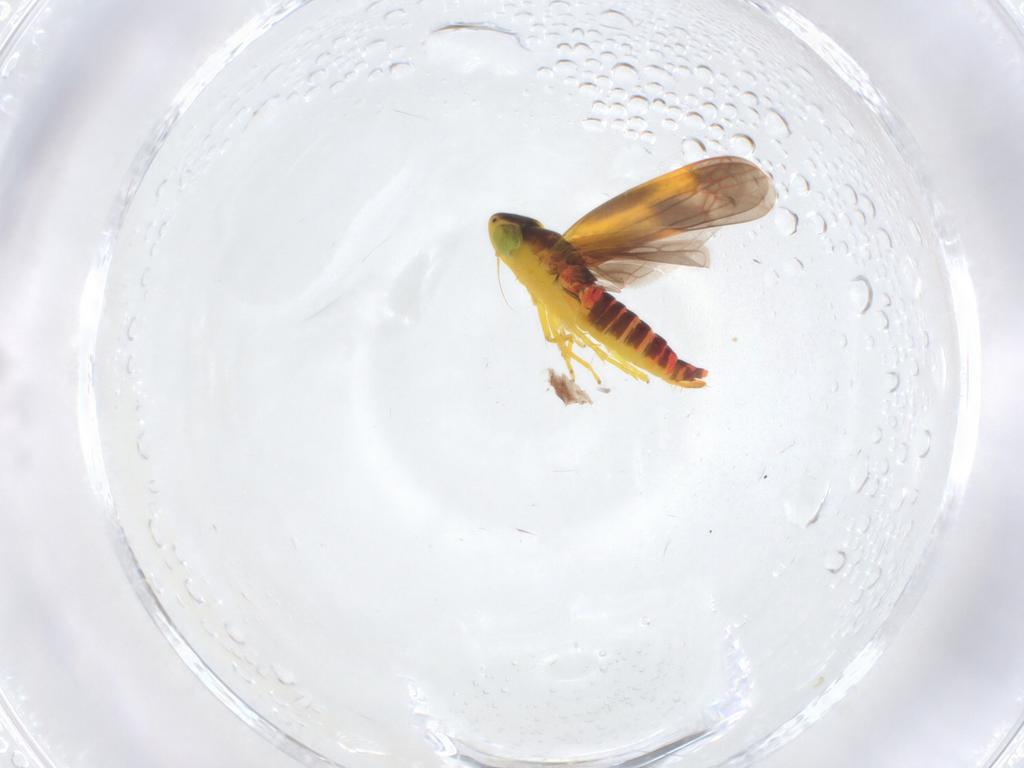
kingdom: Animalia
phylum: Arthropoda
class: Insecta
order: Hemiptera
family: Cicadellidae
